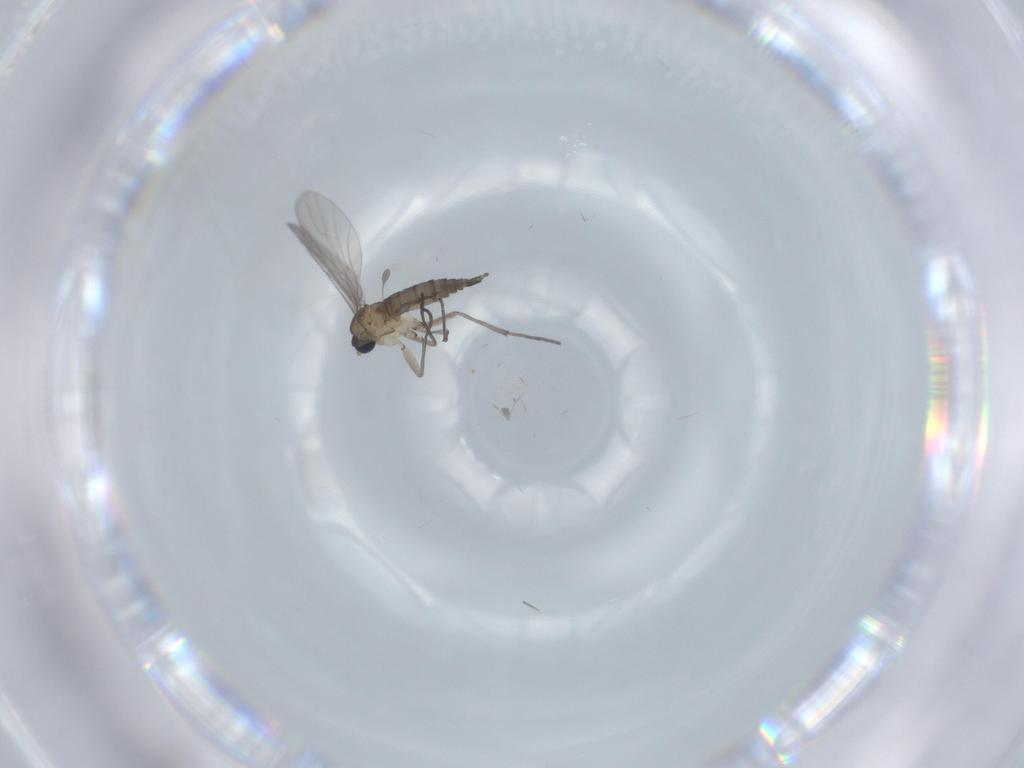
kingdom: Animalia
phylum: Arthropoda
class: Insecta
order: Diptera
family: Sciaridae
